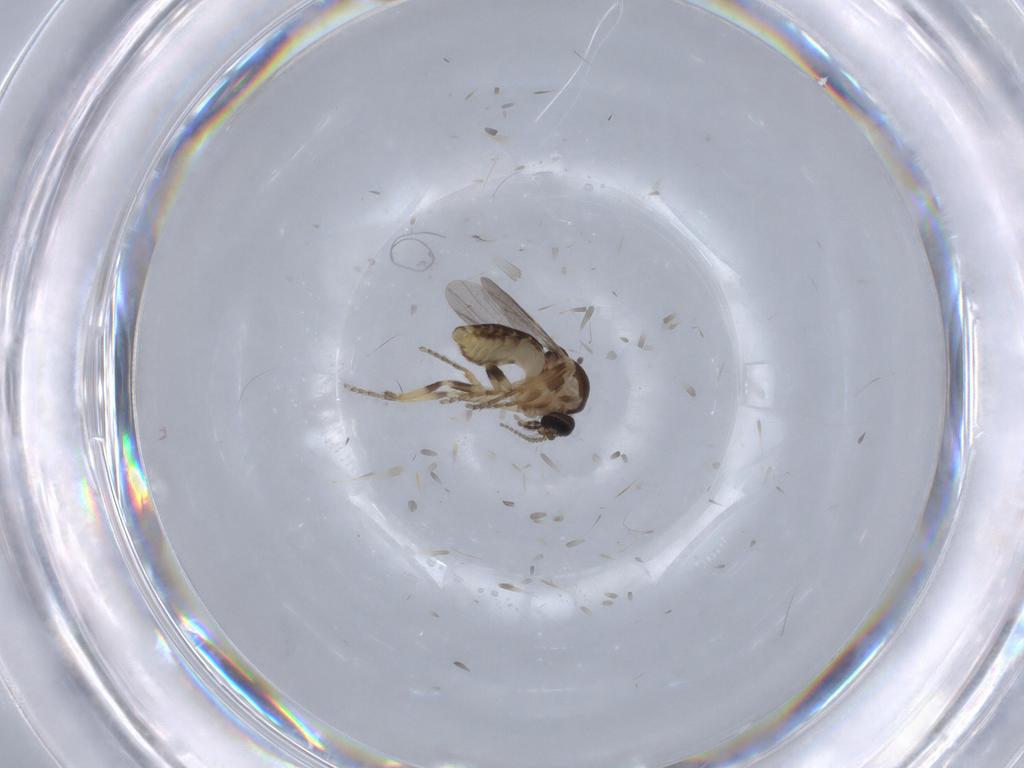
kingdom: Animalia
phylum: Arthropoda
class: Insecta
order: Diptera
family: Ceratopogonidae
